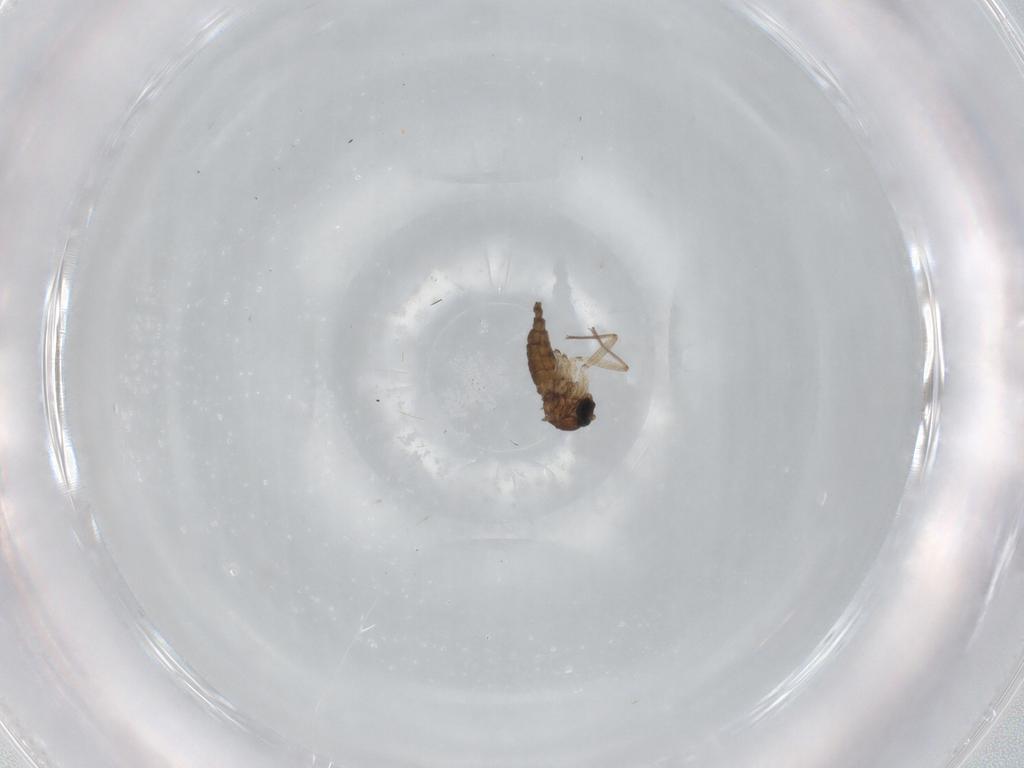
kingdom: Animalia
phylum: Arthropoda
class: Insecta
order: Diptera
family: Sciaridae
